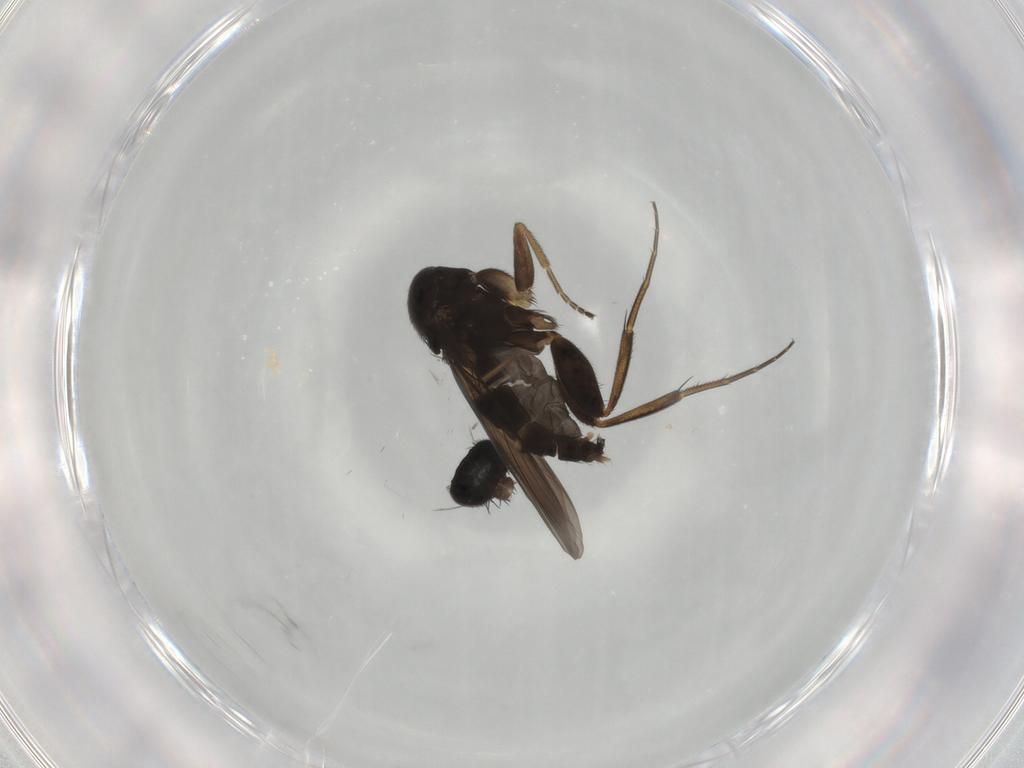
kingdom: Animalia
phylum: Arthropoda
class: Insecta
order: Diptera
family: Phoridae
